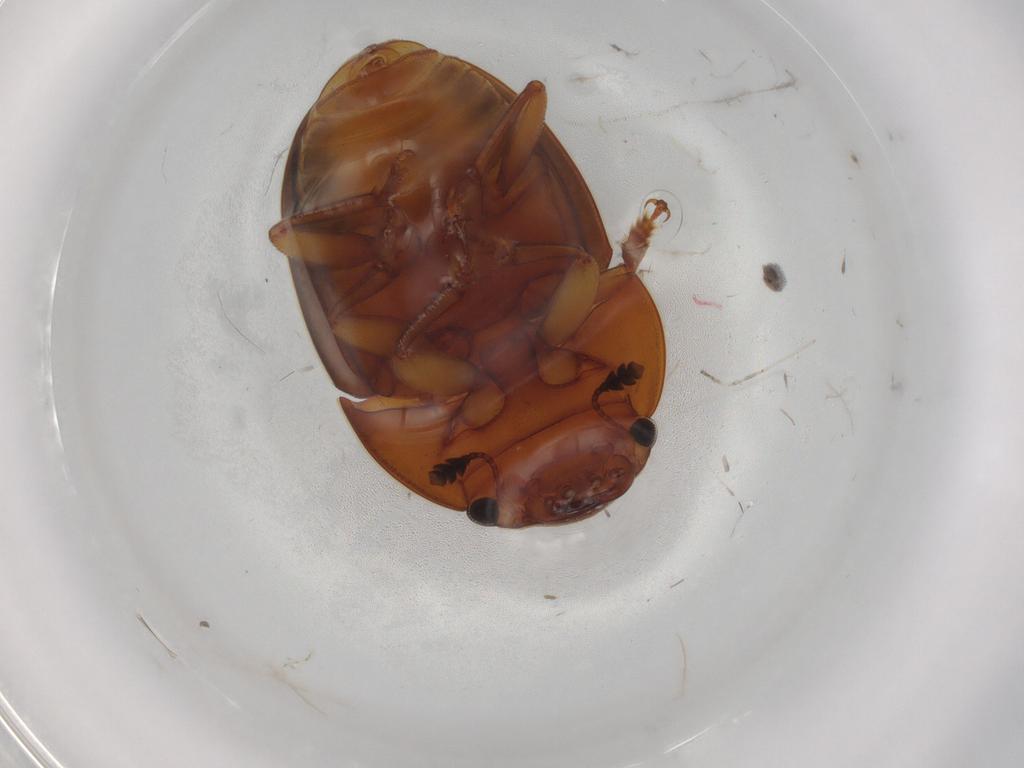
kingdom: Animalia
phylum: Arthropoda
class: Insecta
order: Coleoptera
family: Nitidulidae
